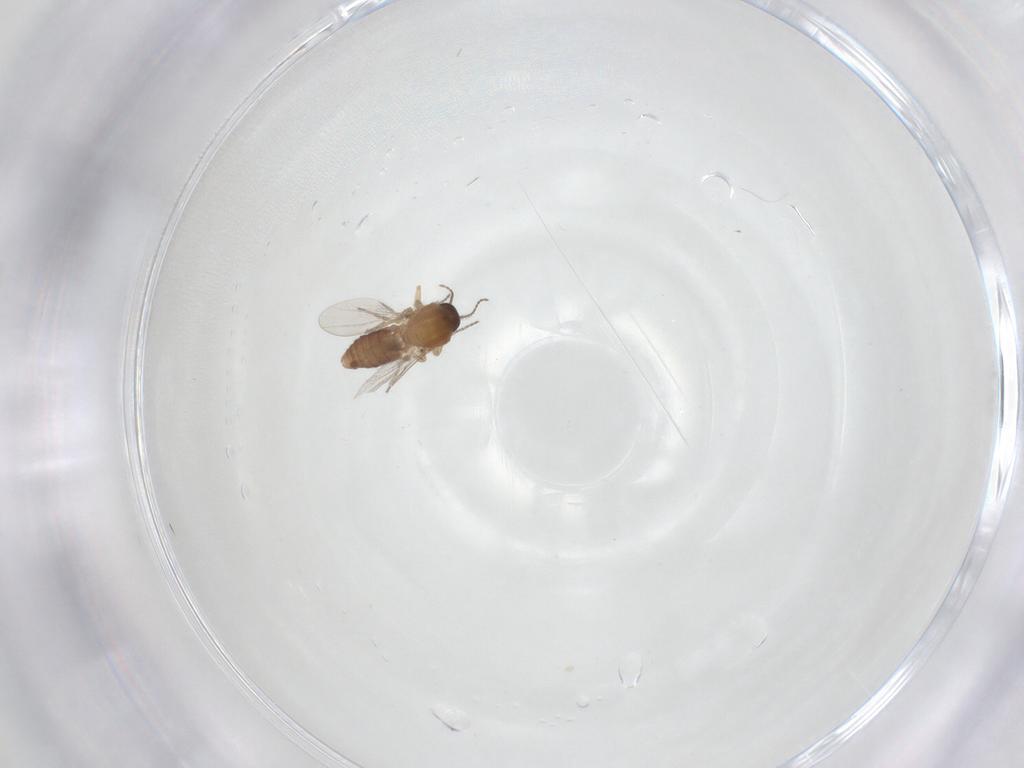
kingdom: Animalia
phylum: Arthropoda
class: Insecta
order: Diptera
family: Ceratopogonidae
